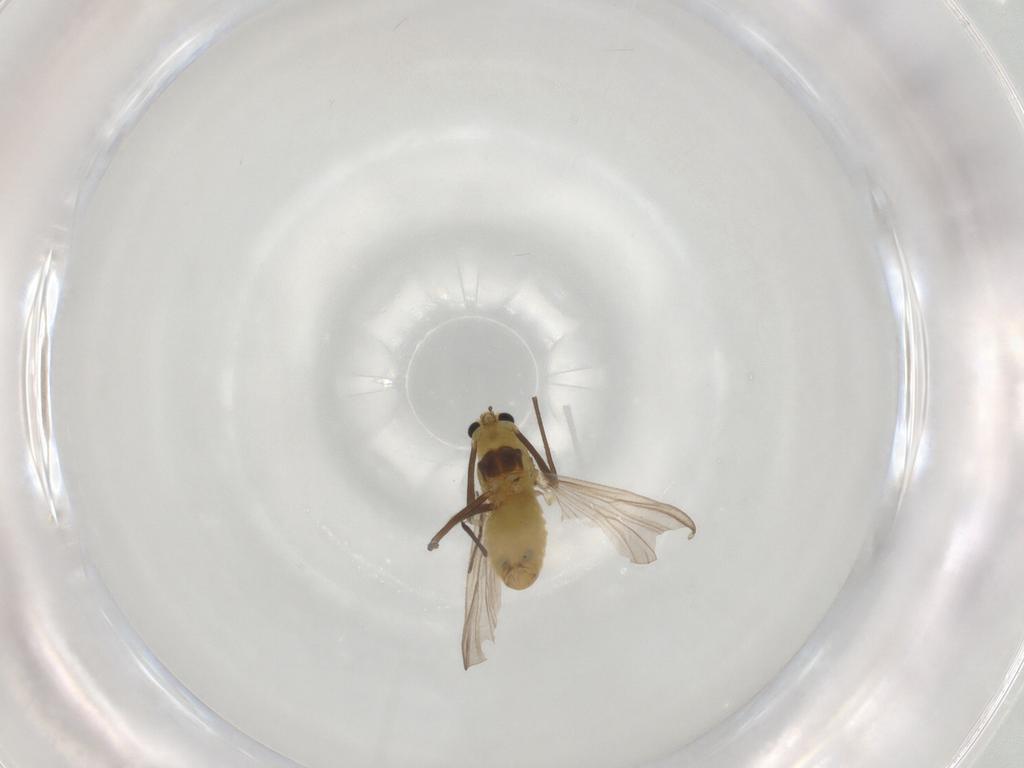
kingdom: Animalia
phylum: Arthropoda
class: Insecta
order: Diptera
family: Chironomidae
